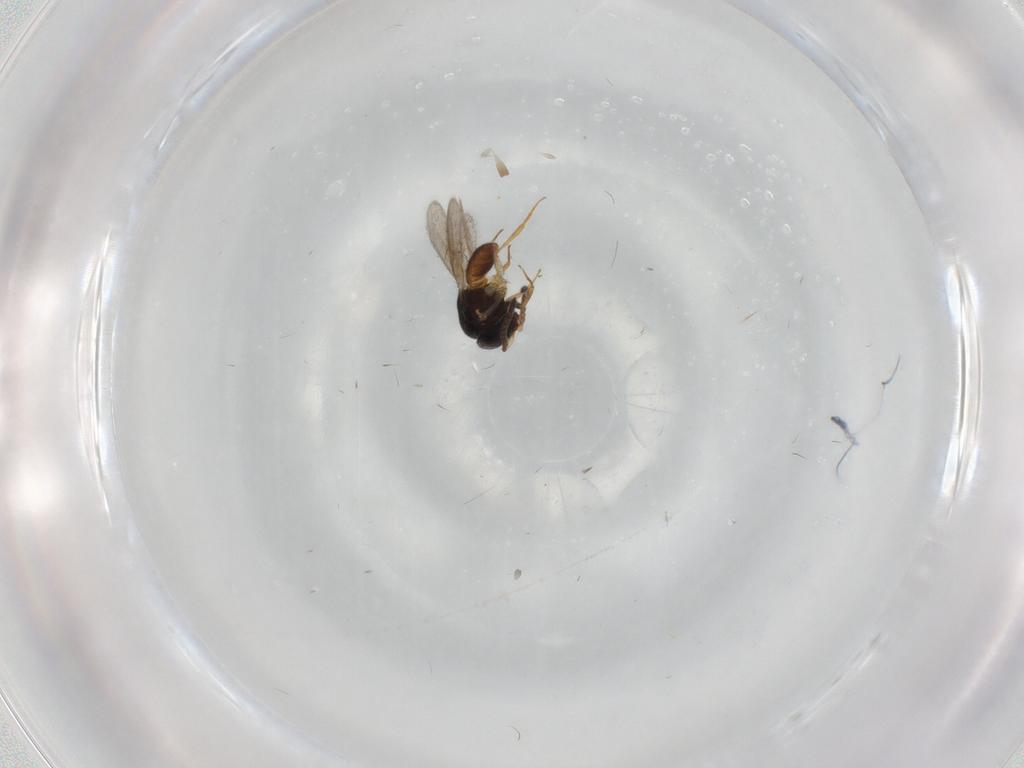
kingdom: Animalia
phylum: Arthropoda
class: Insecta
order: Hymenoptera
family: Scelionidae
